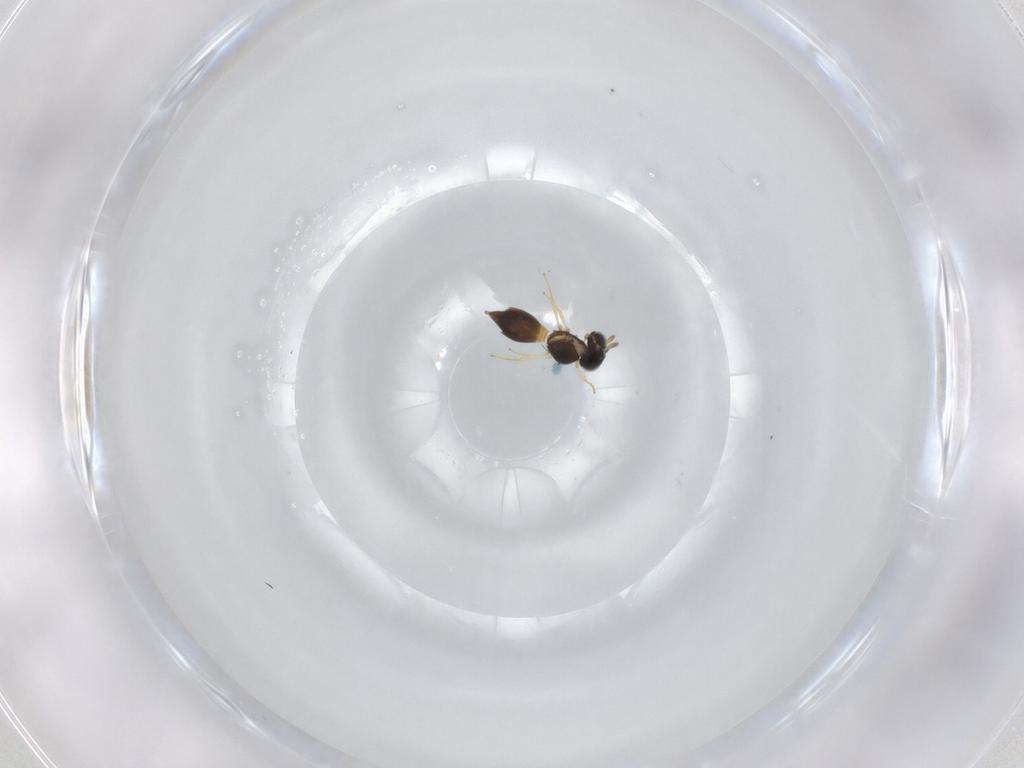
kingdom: Animalia
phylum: Arthropoda
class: Insecta
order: Hymenoptera
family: Scelionidae
